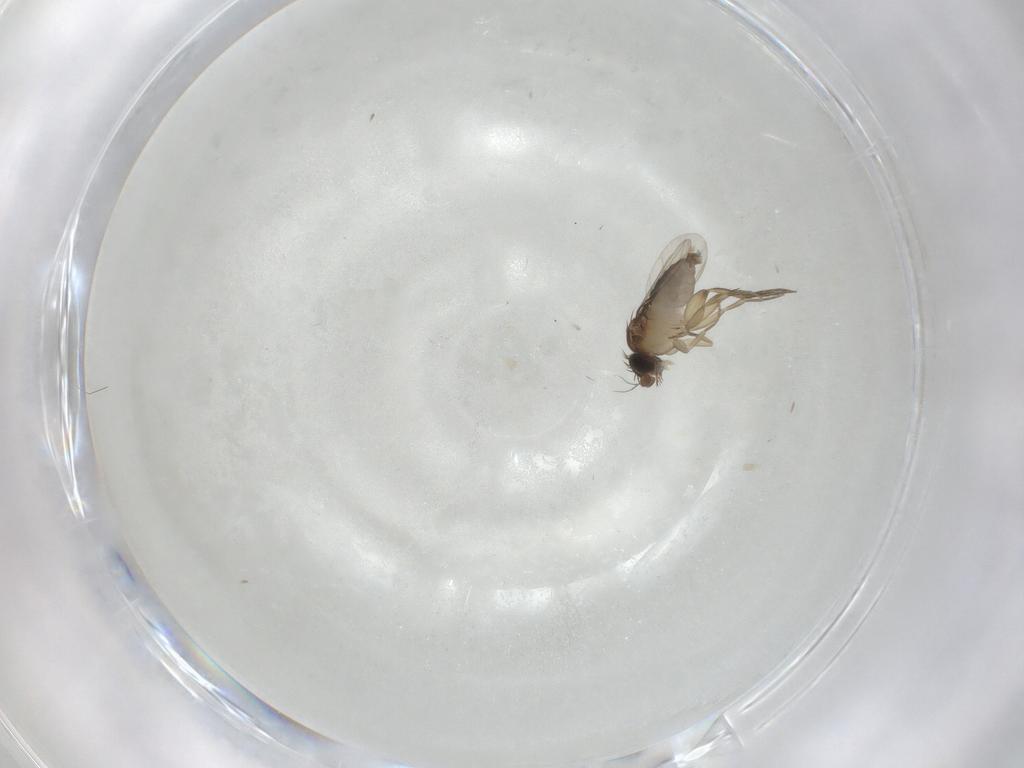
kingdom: Animalia
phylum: Arthropoda
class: Insecta
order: Diptera
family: Phoridae
